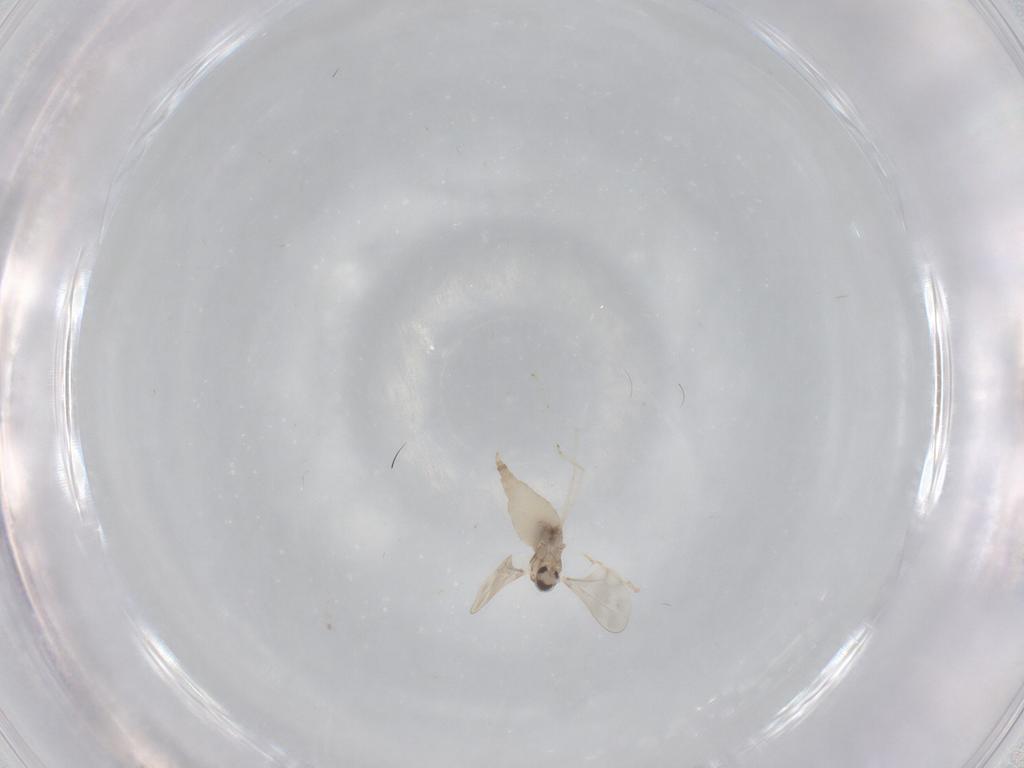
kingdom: Animalia
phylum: Arthropoda
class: Insecta
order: Diptera
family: Cecidomyiidae
